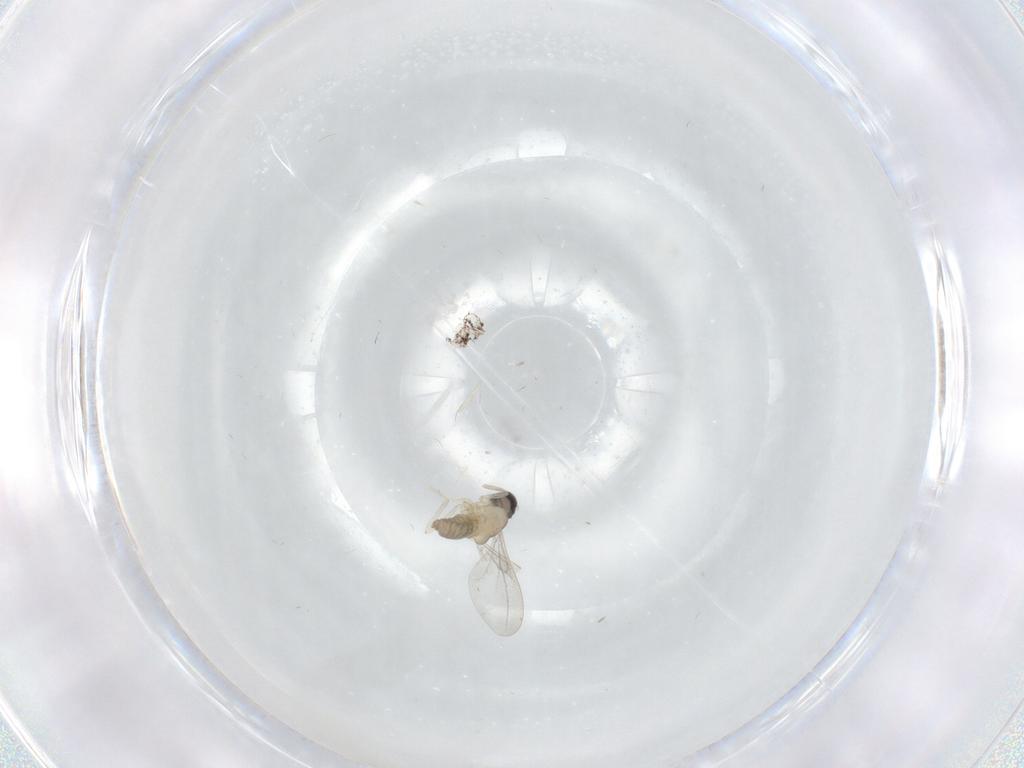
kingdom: Animalia
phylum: Arthropoda
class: Insecta
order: Diptera
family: Cecidomyiidae
